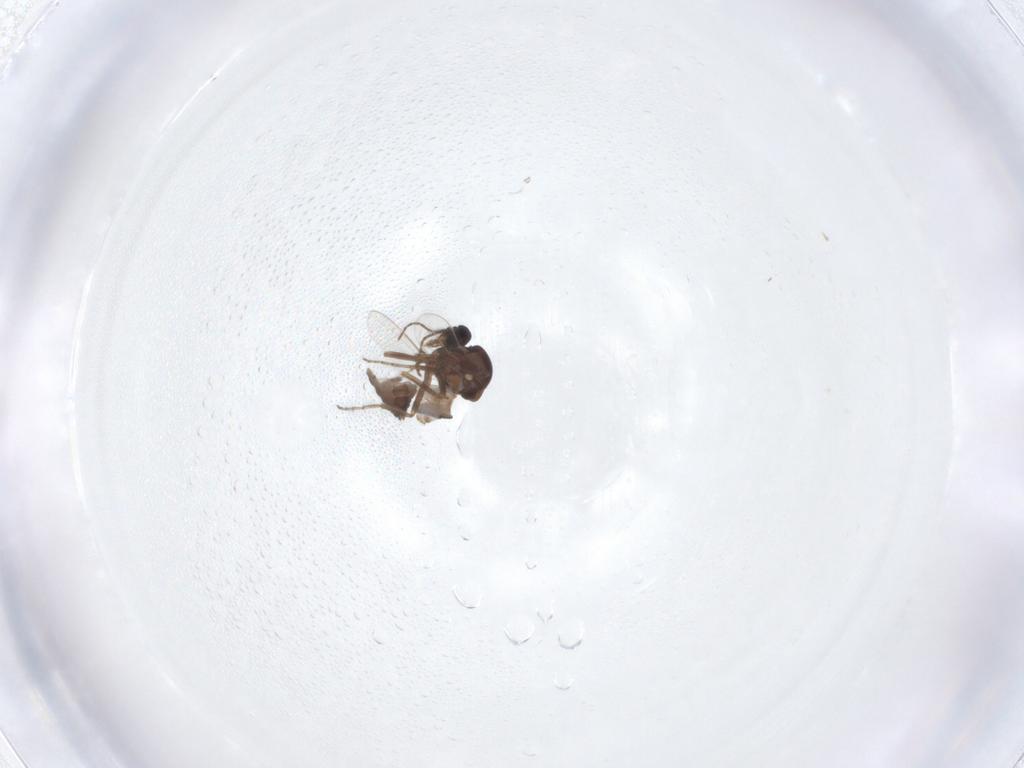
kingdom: Animalia
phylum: Arthropoda
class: Insecta
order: Diptera
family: Ceratopogonidae
